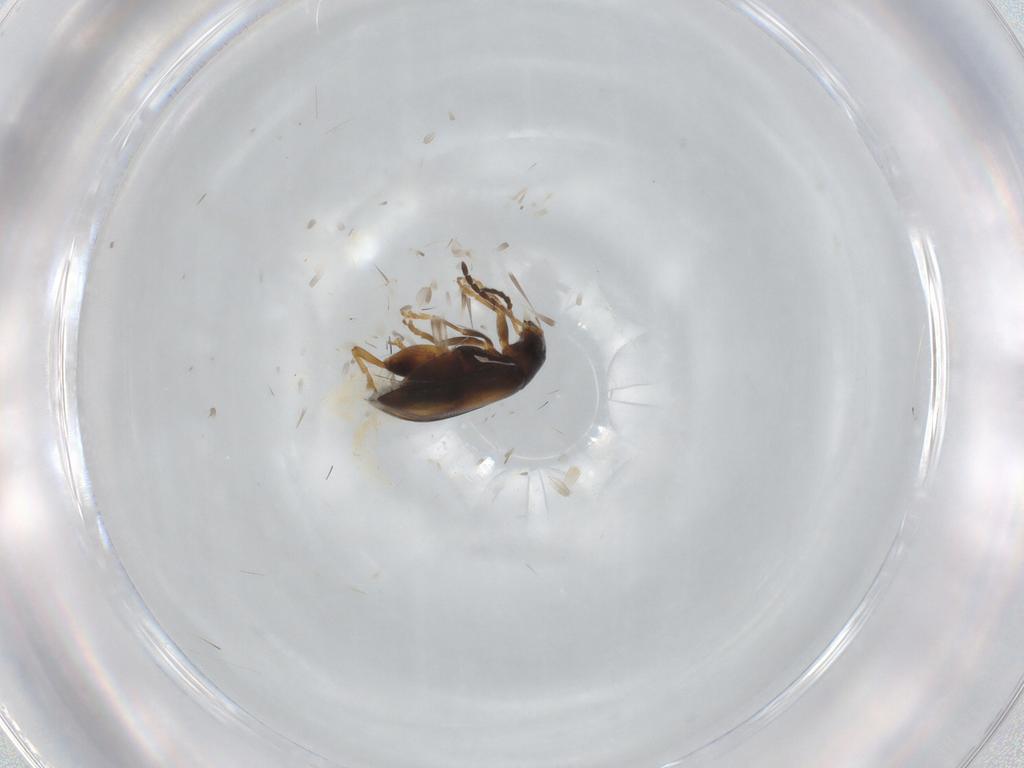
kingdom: Animalia
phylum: Arthropoda
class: Insecta
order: Coleoptera
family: Chrysomelidae
